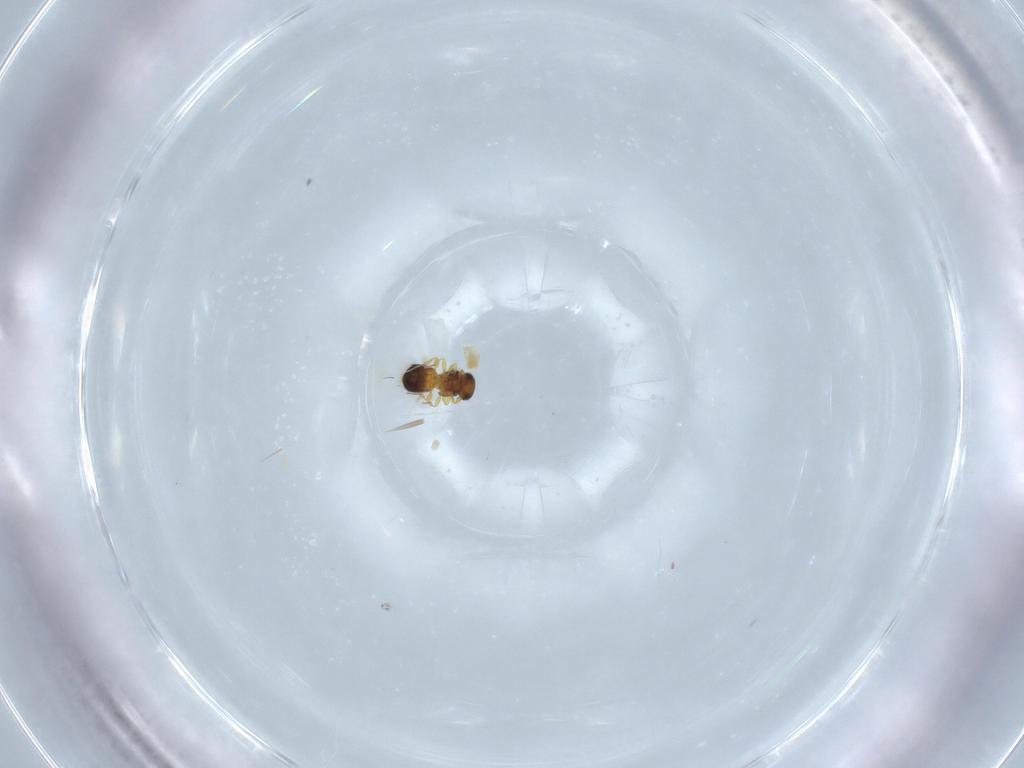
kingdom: Animalia
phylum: Arthropoda
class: Insecta
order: Hymenoptera
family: Platygastridae
